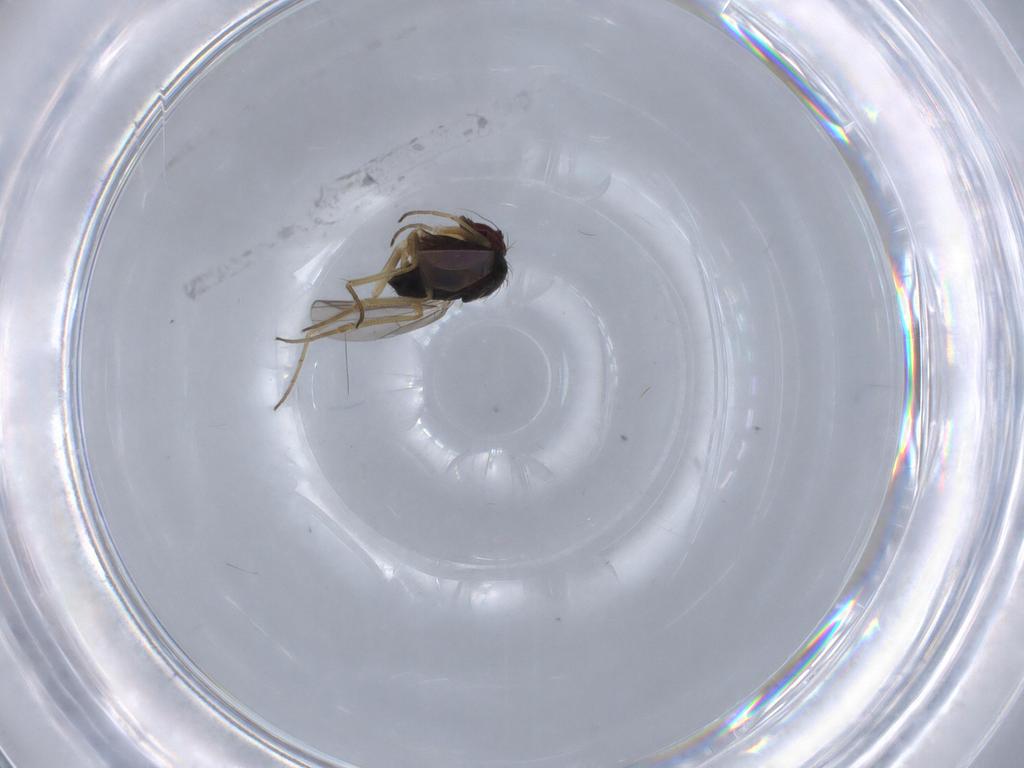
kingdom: Animalia
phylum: Arthropoda
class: Insecta
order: Diptera
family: Dolichopodidae
